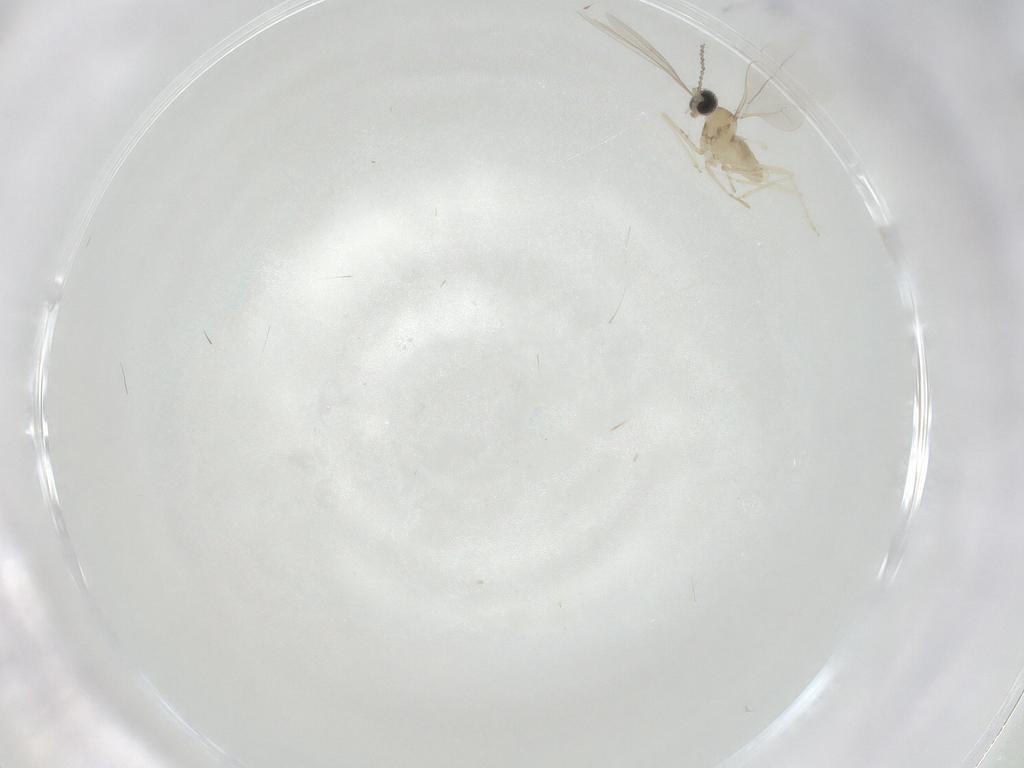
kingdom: Animalia
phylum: Arthropoda
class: Insecta
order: Diptera
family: Cecidomyiidae
